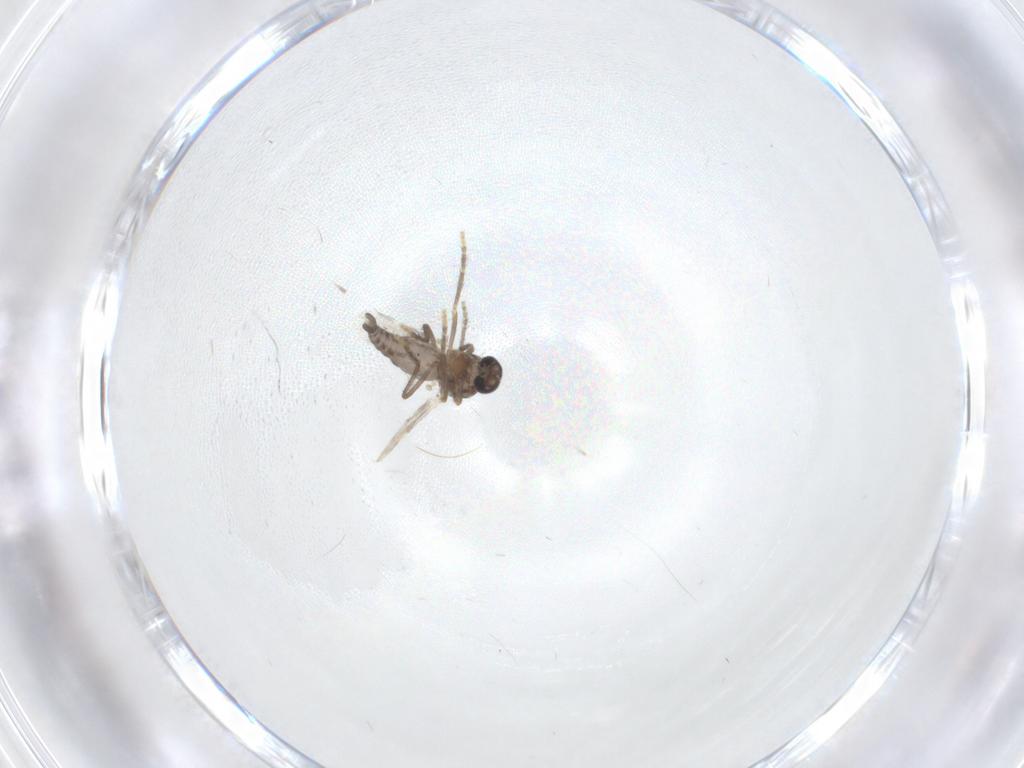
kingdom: Animalia
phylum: Arthropoda
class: Insecta
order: Diptera
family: Ceratopogonidae
